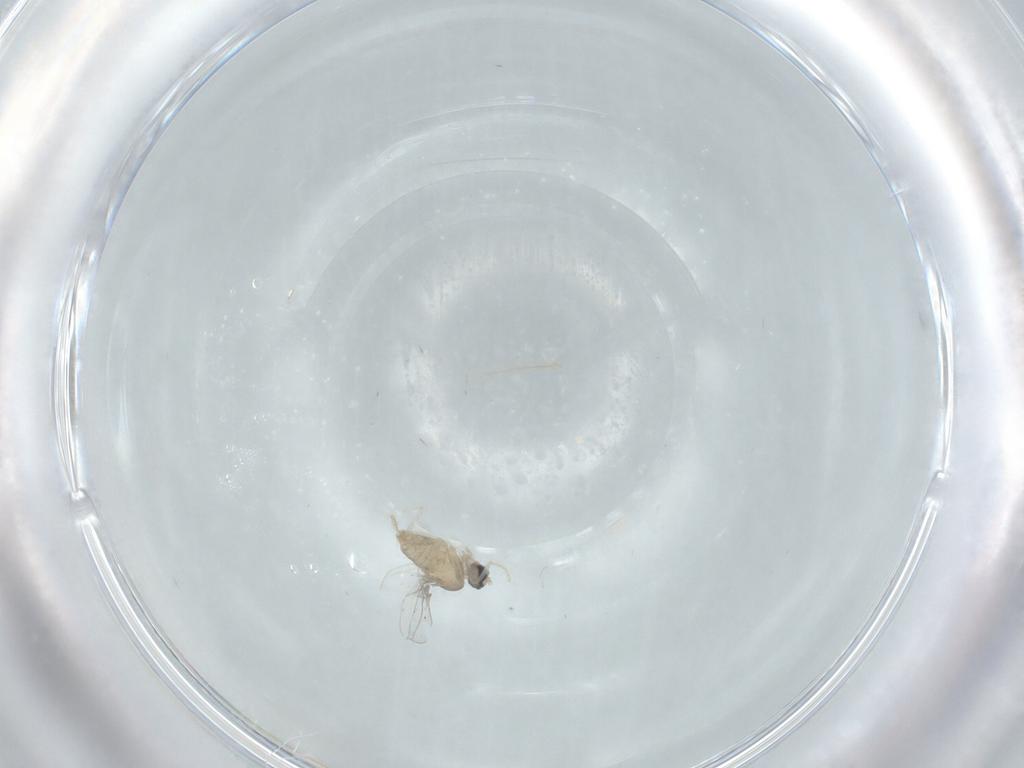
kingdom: Animalia
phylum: Arthropoda
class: Insecta
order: Diptera
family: Cecidomyiidae
